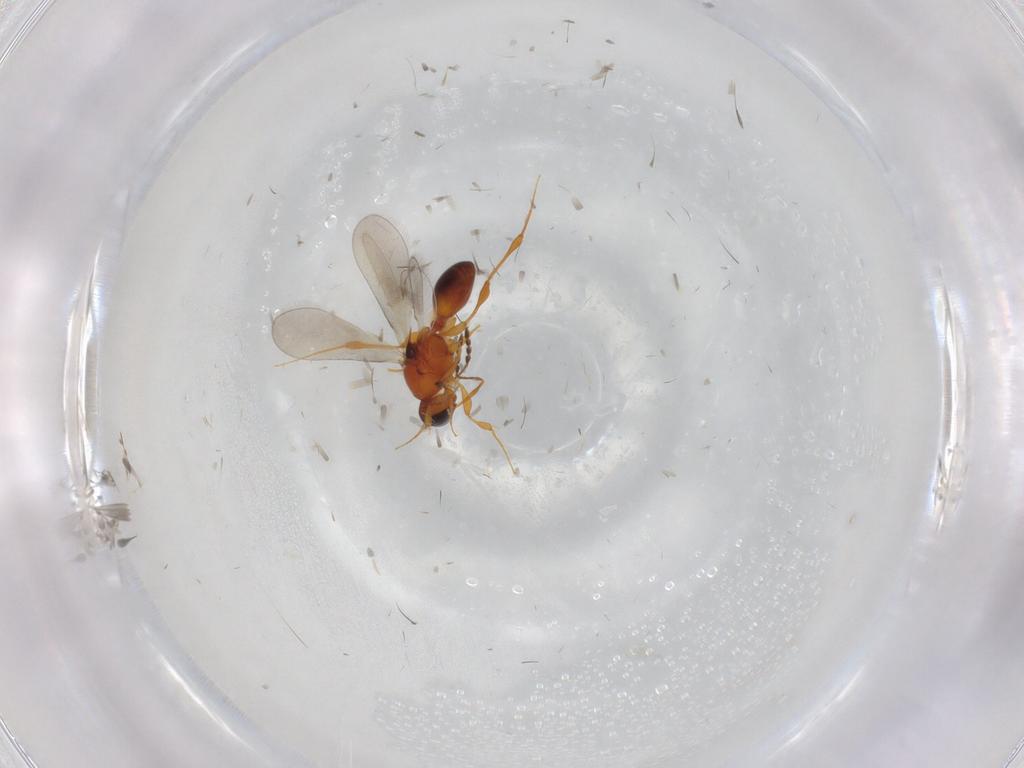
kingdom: Animalia
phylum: Arthropoda
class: Insecta
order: Hymenoptera
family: Platygastridae
